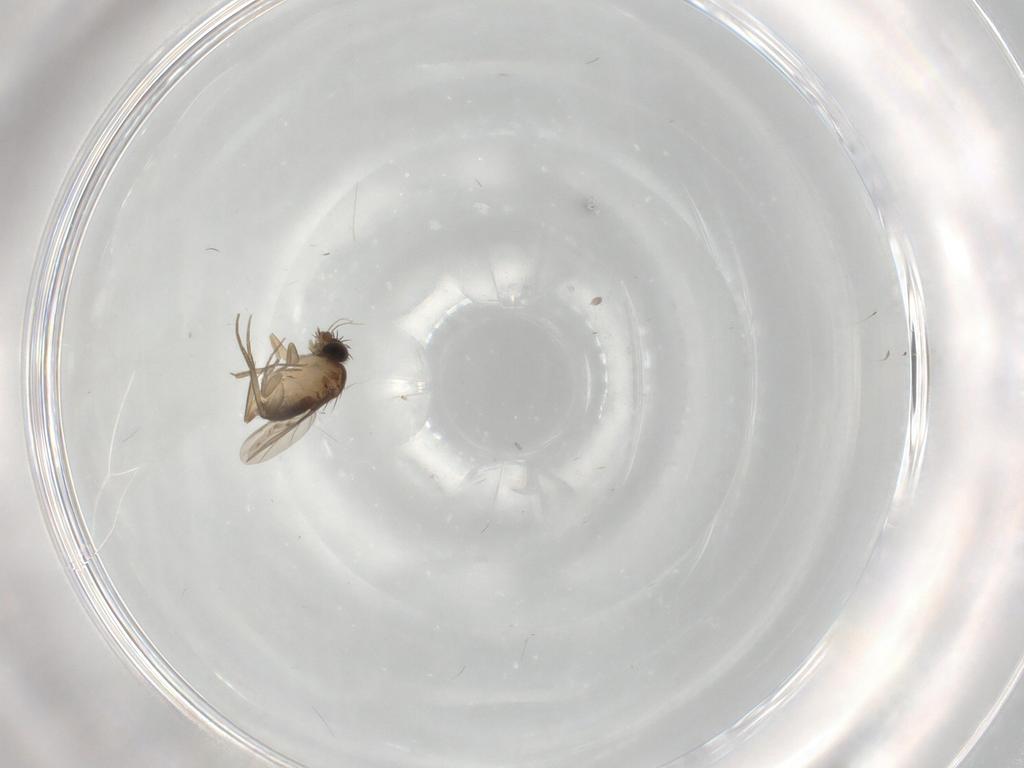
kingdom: Animalia
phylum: Arthropoda
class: Insecta
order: Diptera
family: Phoridae
